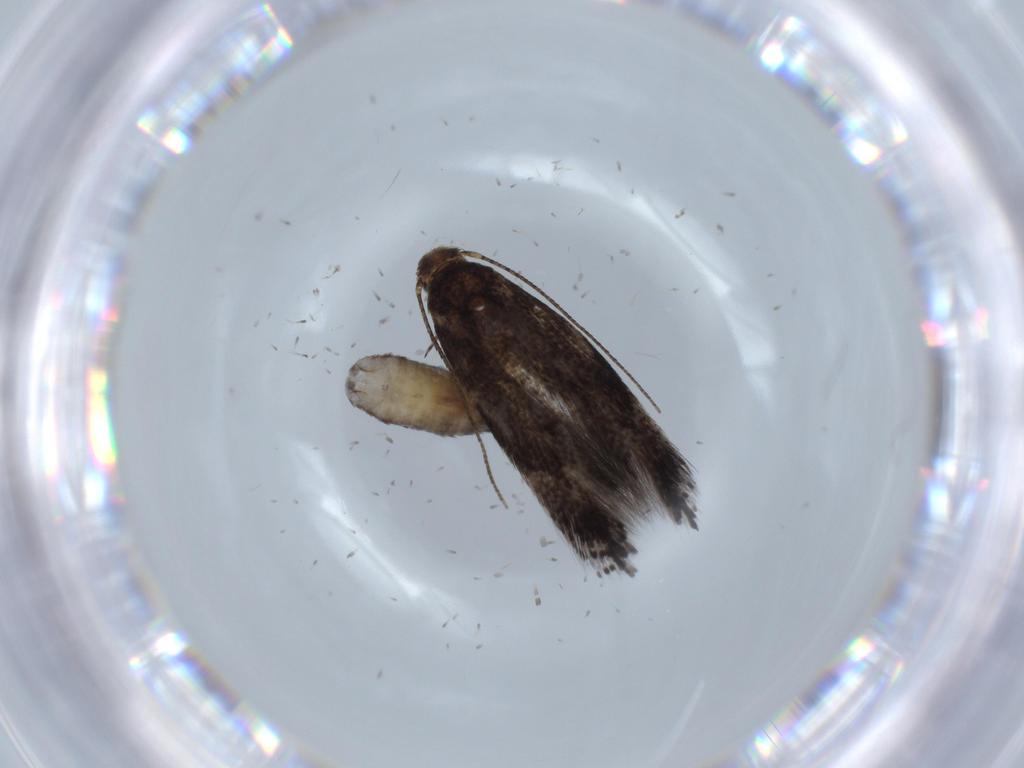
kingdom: Animalia
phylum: Arthropoda
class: Insecta
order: Lepidoptera
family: Gelechiidae
